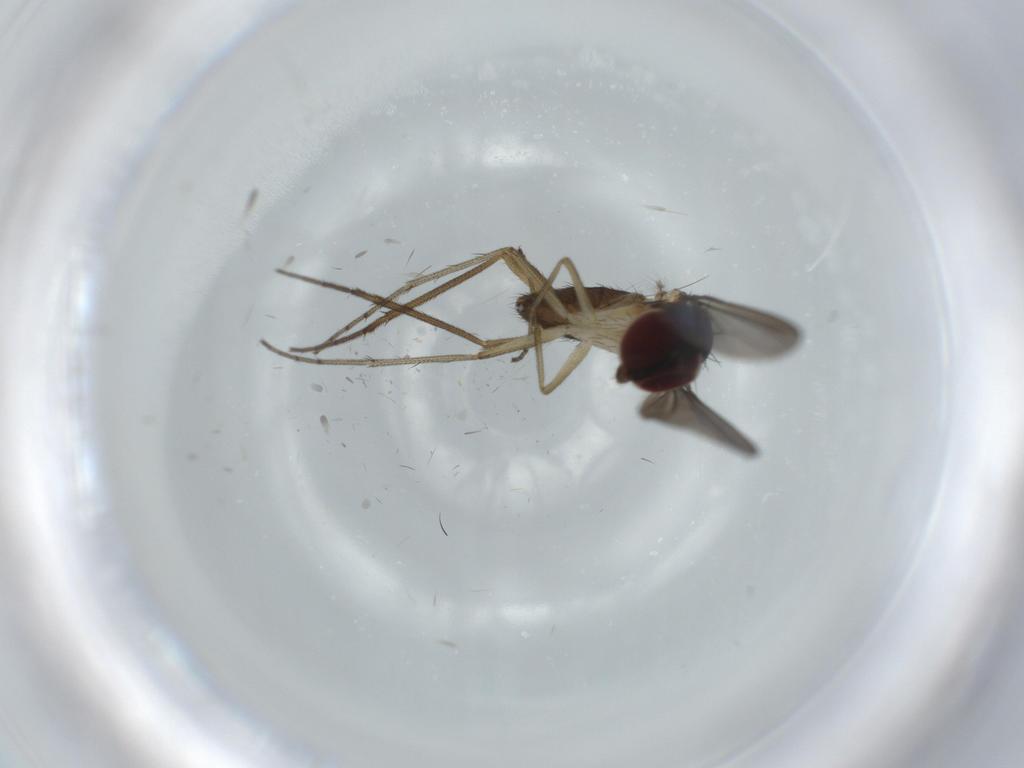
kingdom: Animalia
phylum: Arthropoda
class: Insecta
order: Diptera
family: Dolichopodidae
